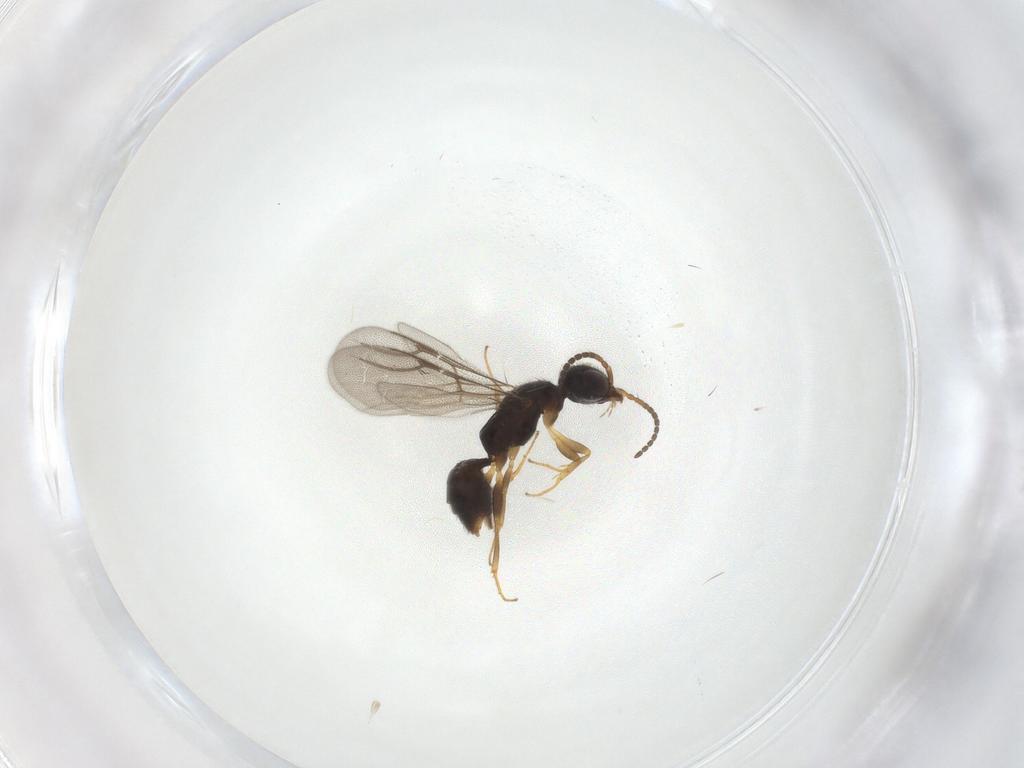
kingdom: Animalia
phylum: Arthropoda
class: Insecta
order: Hymenoptera
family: Bethylidae
